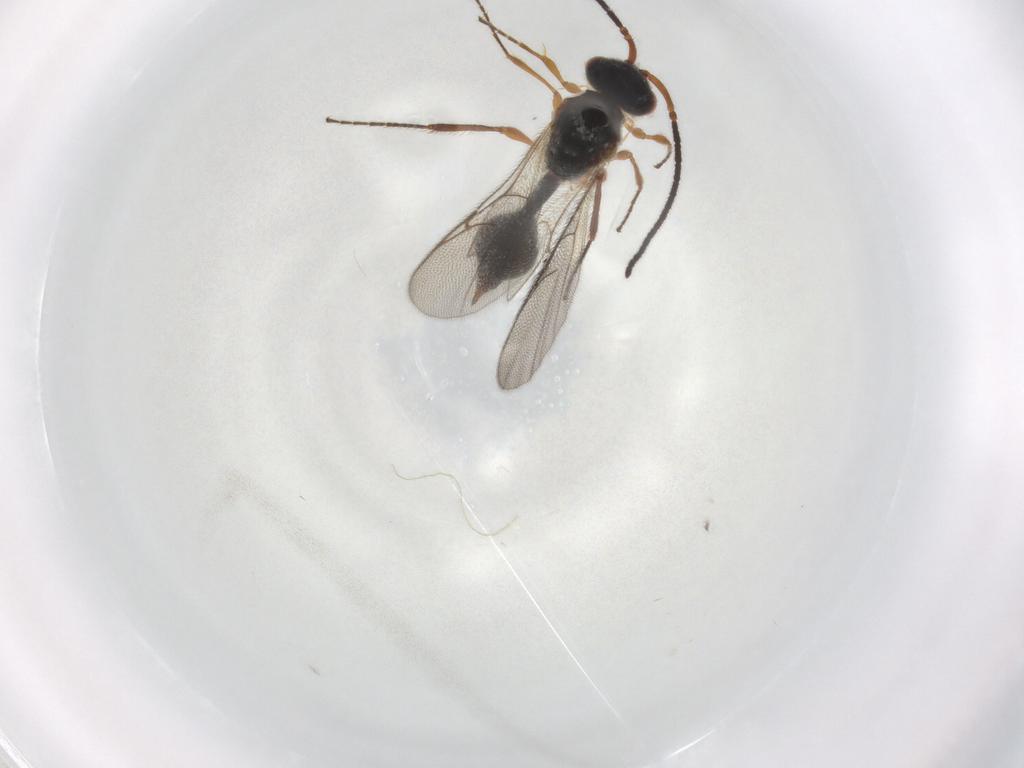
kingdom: Animalia
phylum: Arthropoda
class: Insecta
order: Hymenoptera
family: Diapriidae
